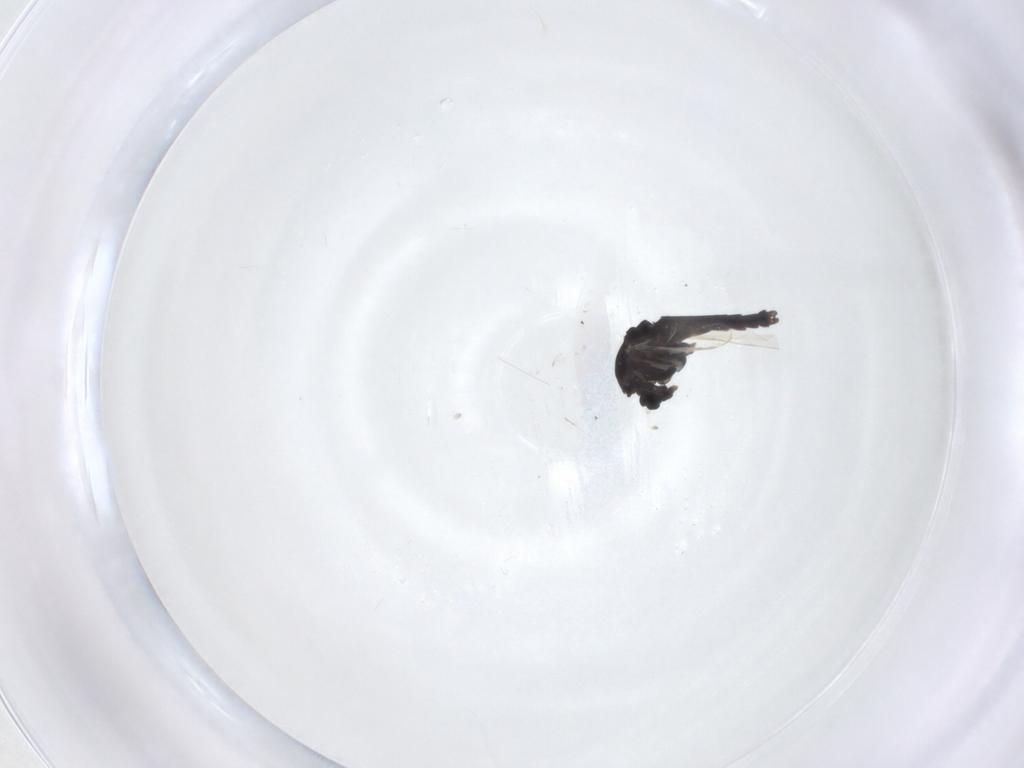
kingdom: Animalia
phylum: Arthropoda
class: Insecta
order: Diptera
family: Chironomidae
